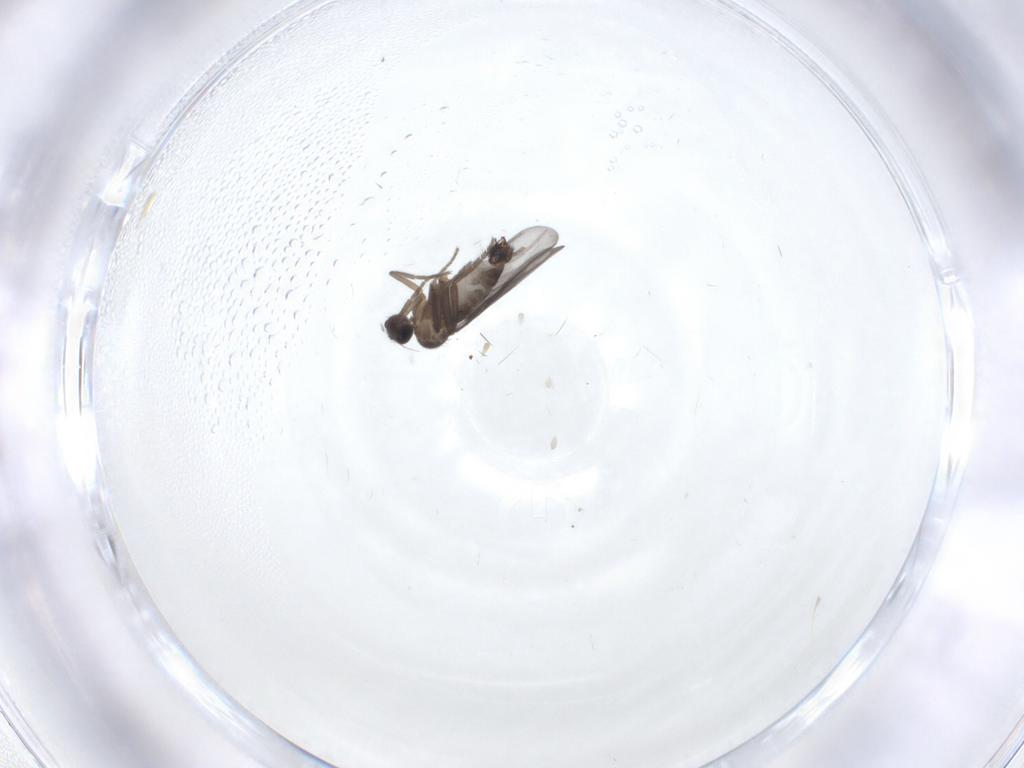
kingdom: Animalia
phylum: Arthropoda
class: Insecta
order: Diptera
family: Phoridae
